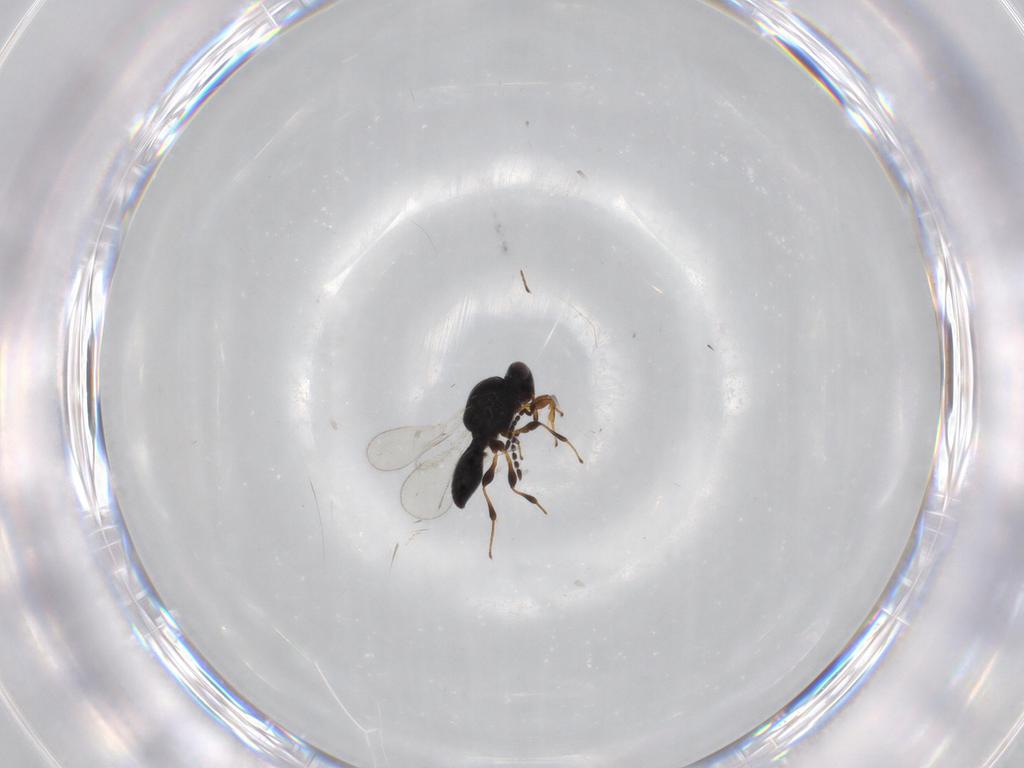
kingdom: Animalia
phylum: Arthropoda
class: Insecta
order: Hymenoptera
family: Platygastridae
